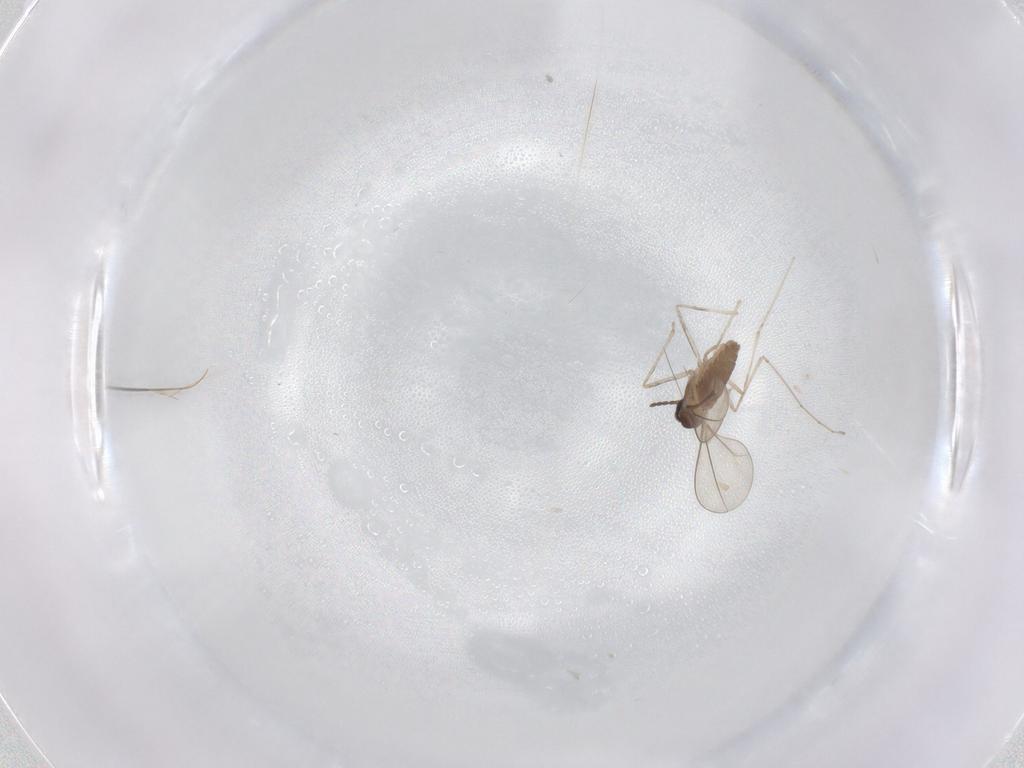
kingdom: Animalia
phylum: Arthropoda
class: Insecta
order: Diptera
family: Cecidomyiidae
